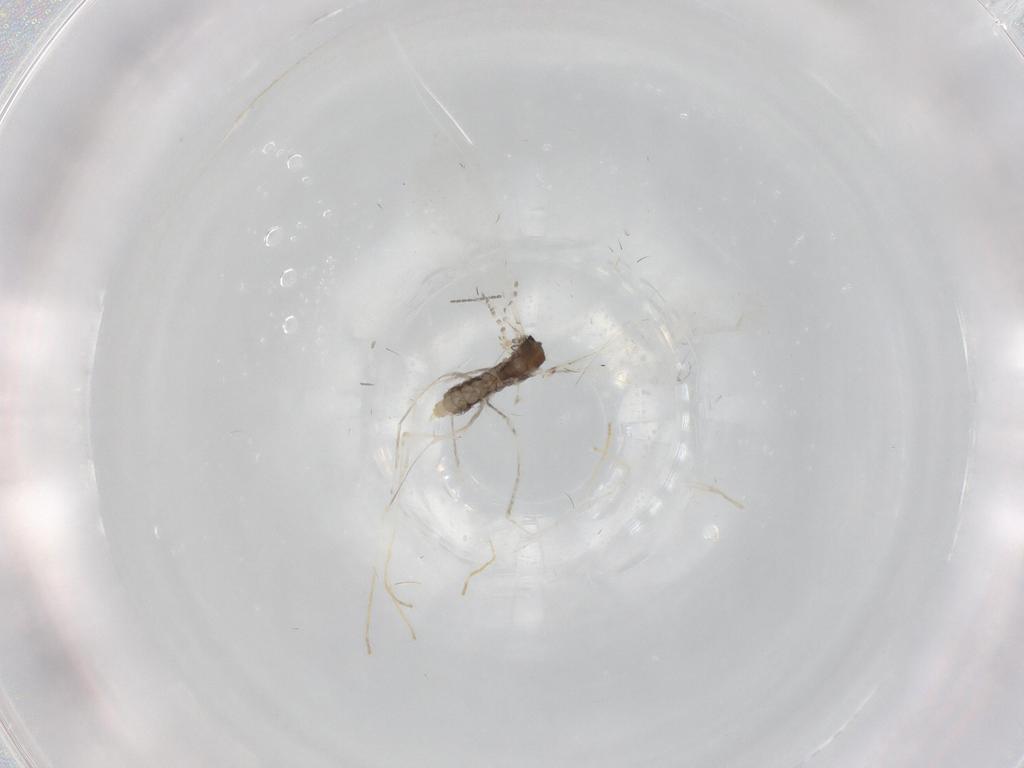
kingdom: Animalia
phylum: Arthropoda
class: Insecta
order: Diptera
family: Cecidomyiidae
